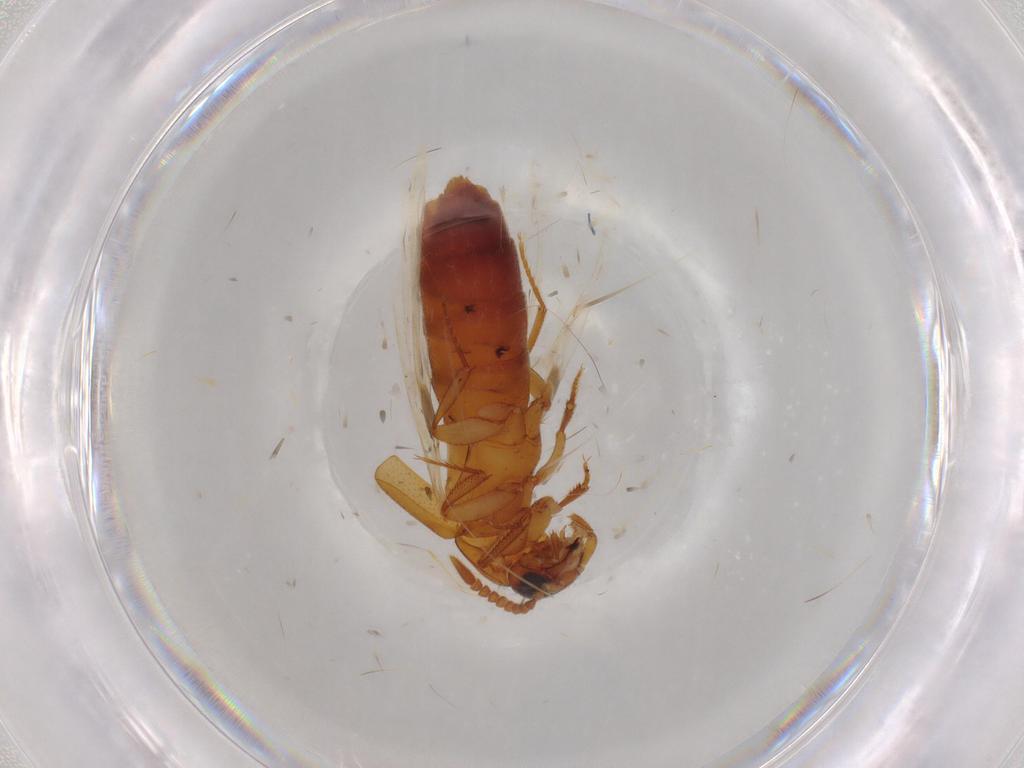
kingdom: Animalia
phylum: Arthropoda
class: Insecta
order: Coleoptera
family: Staphylinidae
